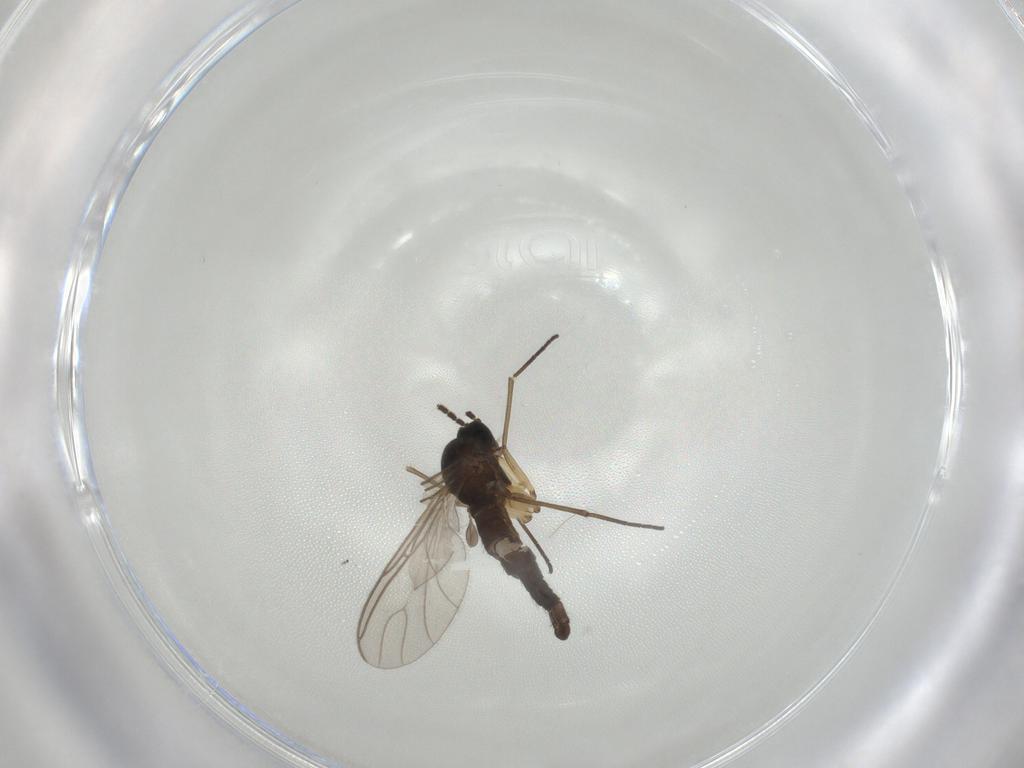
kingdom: Animalia
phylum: Arthropoda
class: Insecta
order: Diptera
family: Sciaridae
